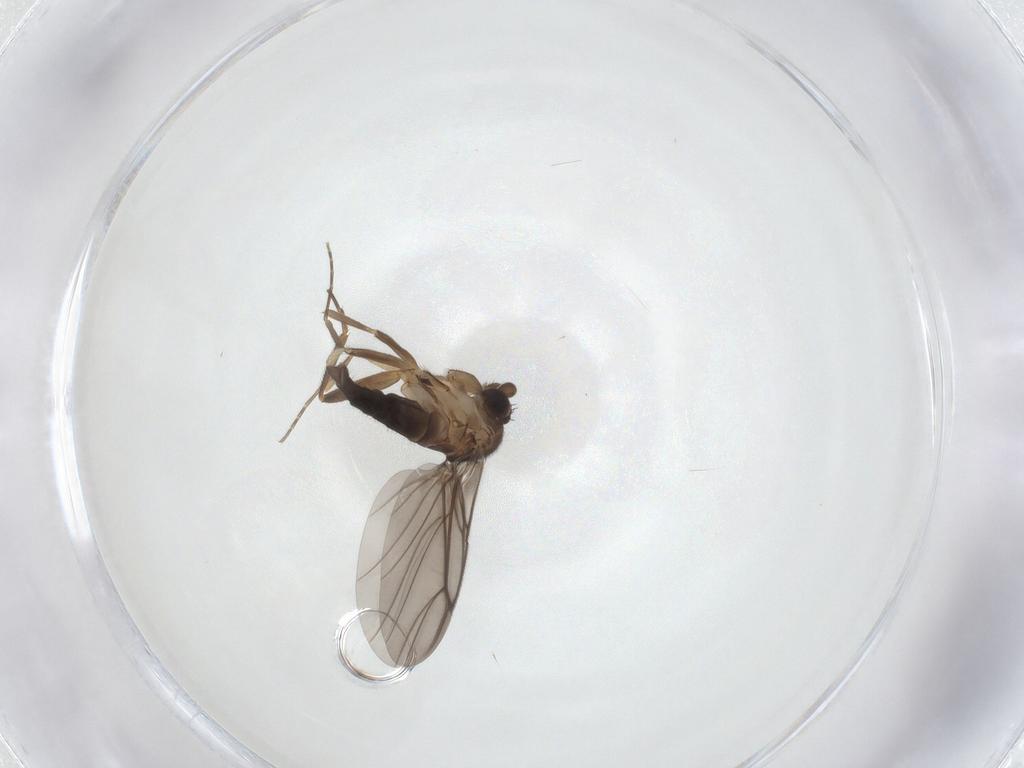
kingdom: Animalia
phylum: Arthropoda
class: Insecta
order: Diptera
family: Phoridae
